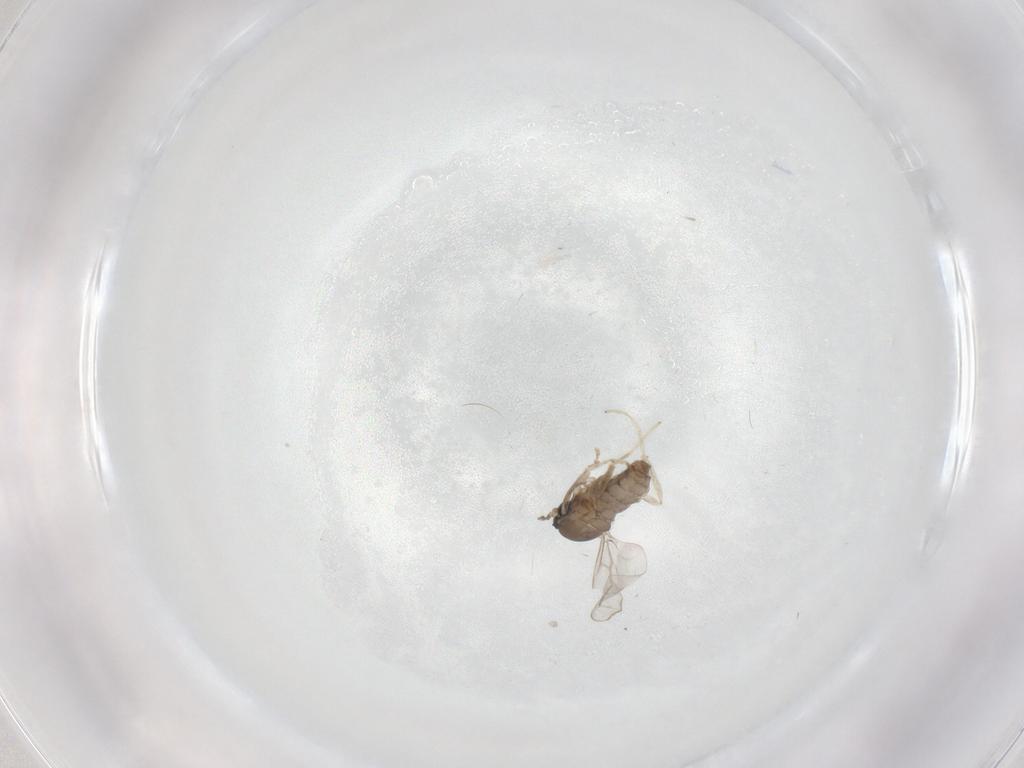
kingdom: Animalia
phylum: Arthropoda
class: Insecta
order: Diptera
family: Cecidomyiidae
